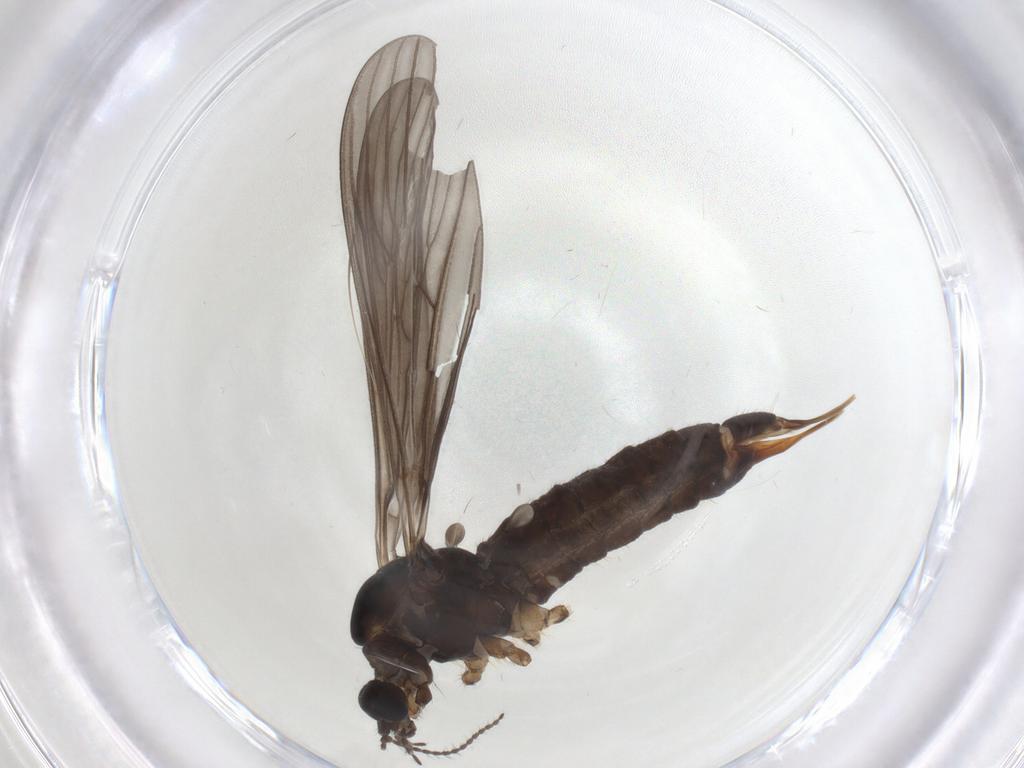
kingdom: Animalia
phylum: Arthropoda
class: Insecta
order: Diptera
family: Limoniidae
